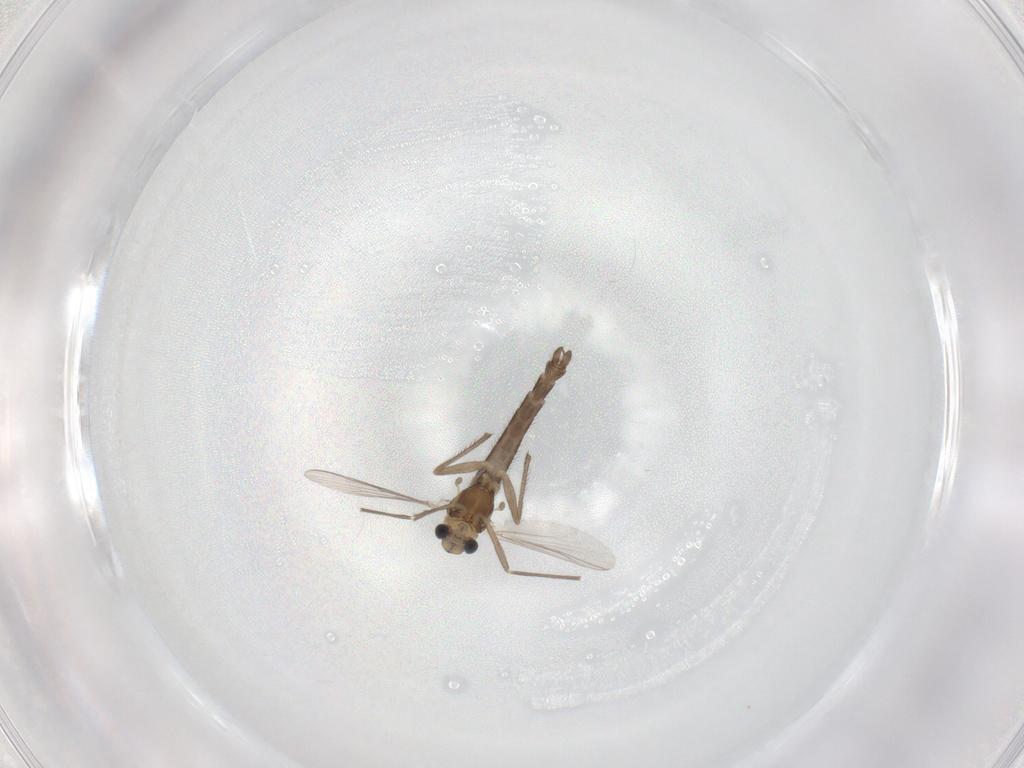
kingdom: Animalia
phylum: Arthropoda
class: Insecta
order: Diptera
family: Chironomidae
